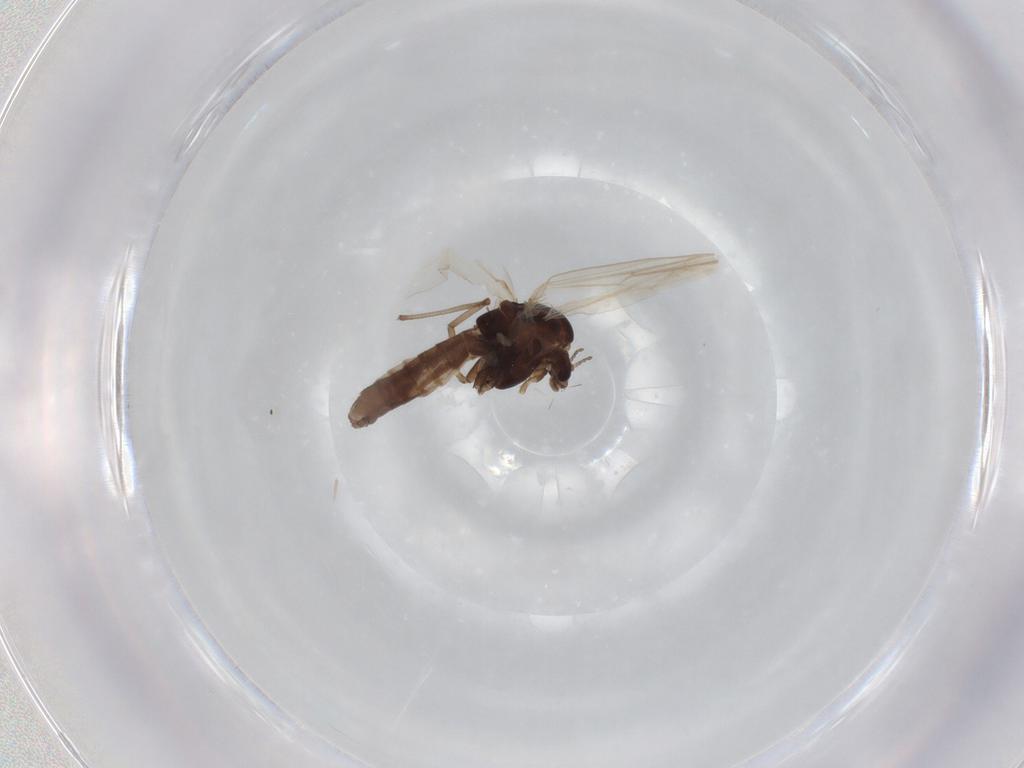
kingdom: Animalia
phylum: Arthropoda
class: Insecta
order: Diptera
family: Chironomidae
